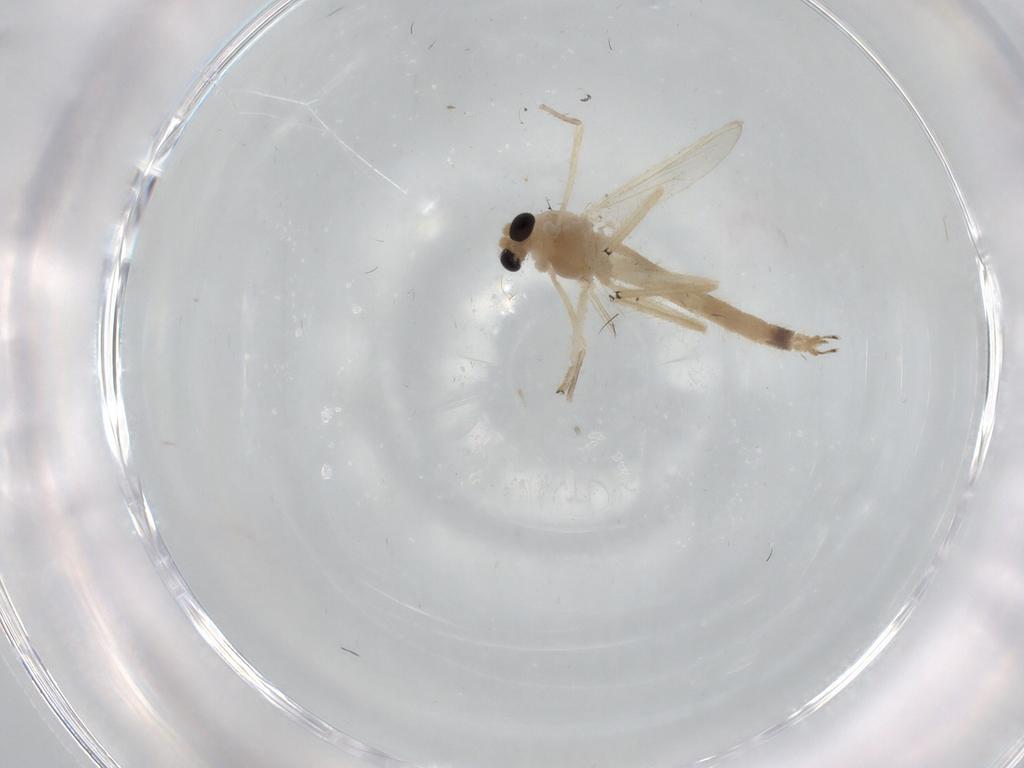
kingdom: Animalia
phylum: Arthropoda
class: Insecta
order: Diptera
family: Chironomidae
